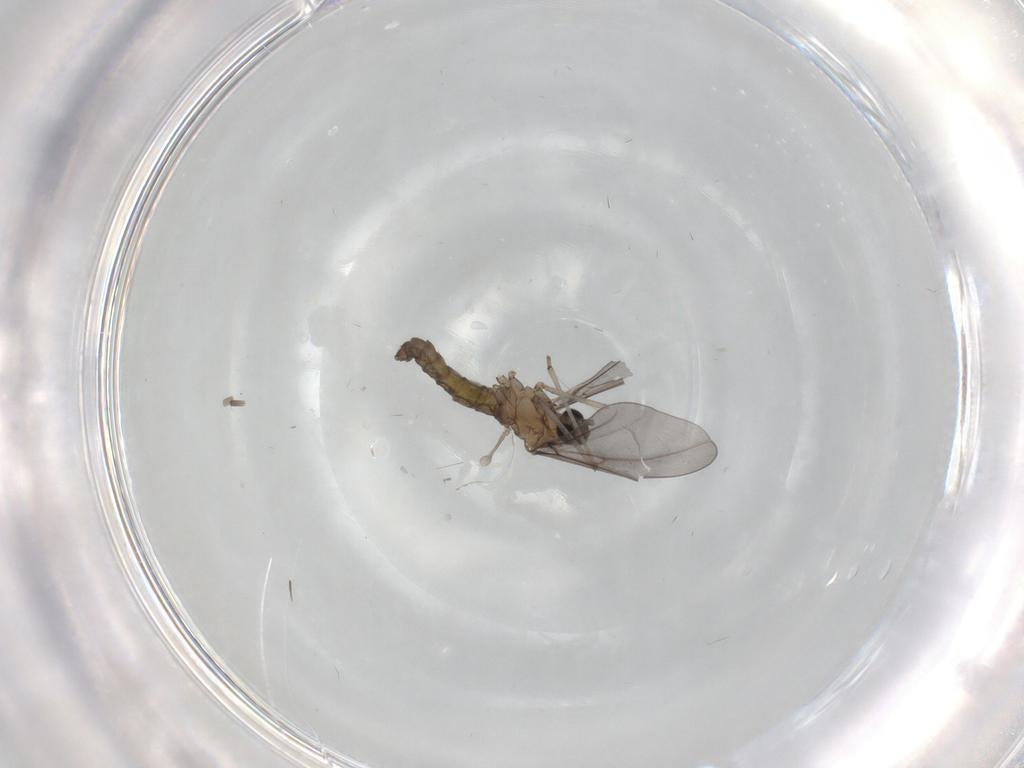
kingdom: Animalia
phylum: Arthropoda
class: Insecta
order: Diptera
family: Cecidomyiidae
